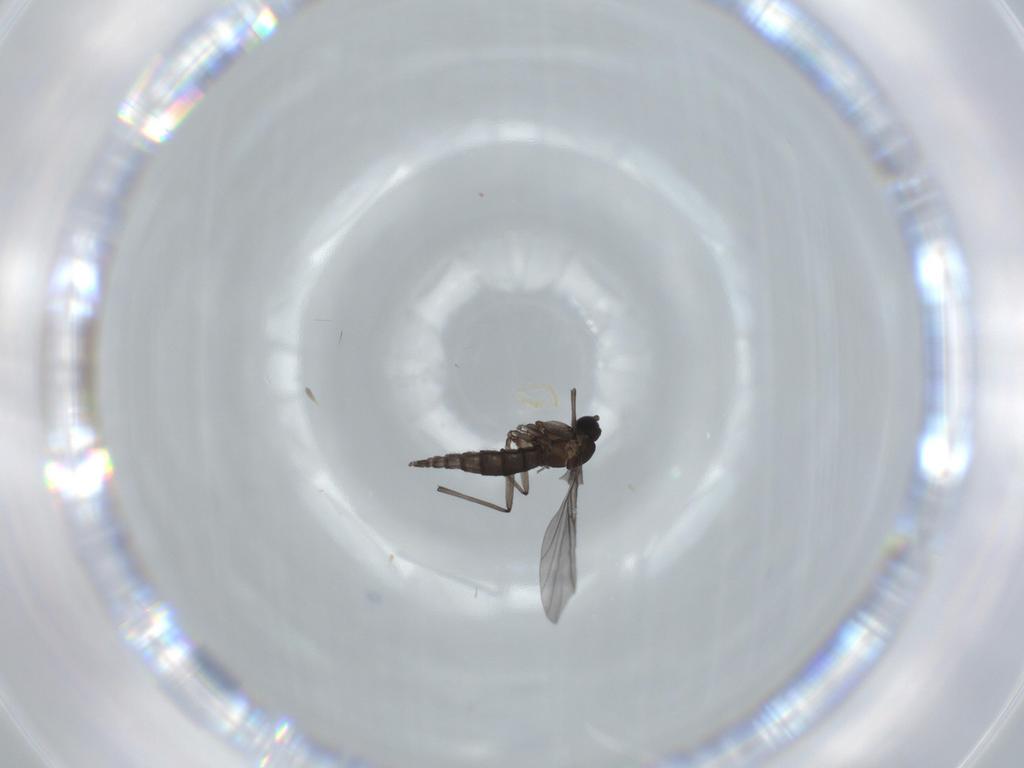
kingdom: Animalia
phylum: Arthropoda
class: Insecta
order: Diptera
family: Sciaridae
